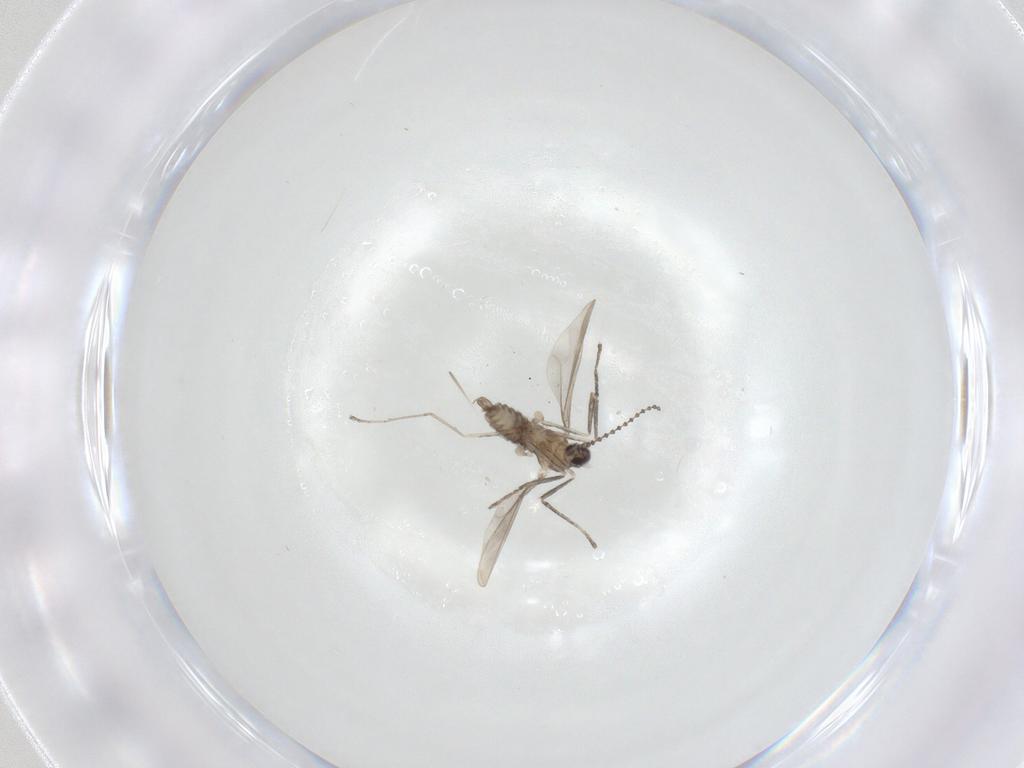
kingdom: Animalia
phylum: Arthropoda
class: Insecta
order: Diptera
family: Cecidomyiidae
